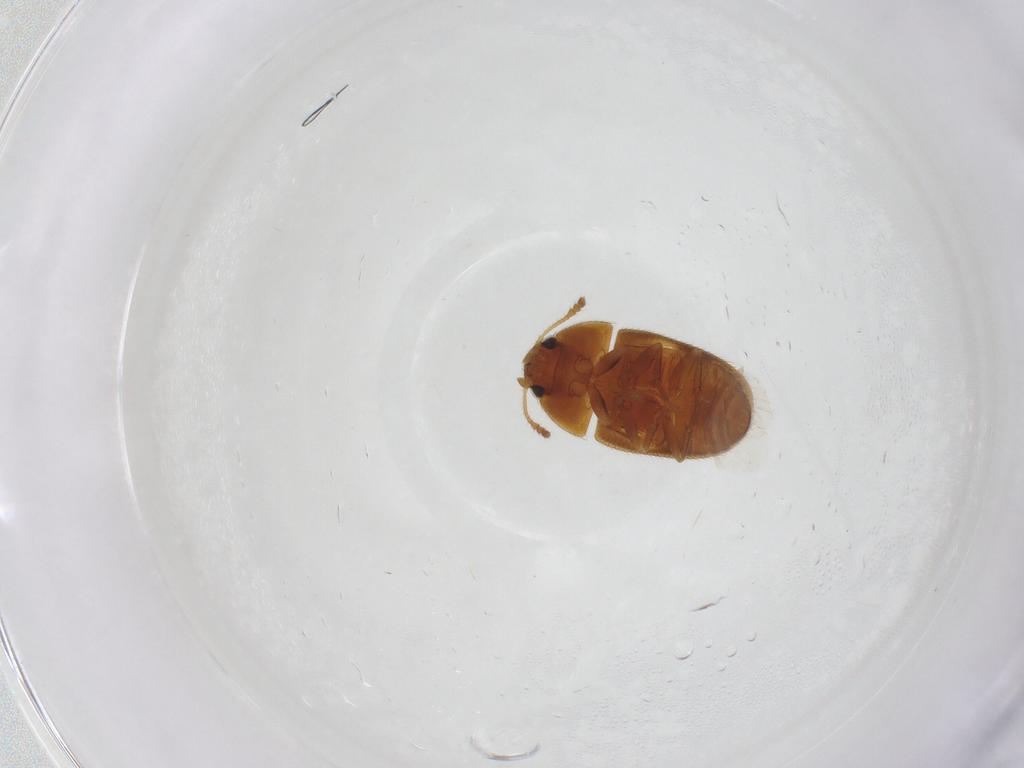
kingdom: Animalia
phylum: Arthropoda
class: Insecta
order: Coleoptera
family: Mycetophagidae
